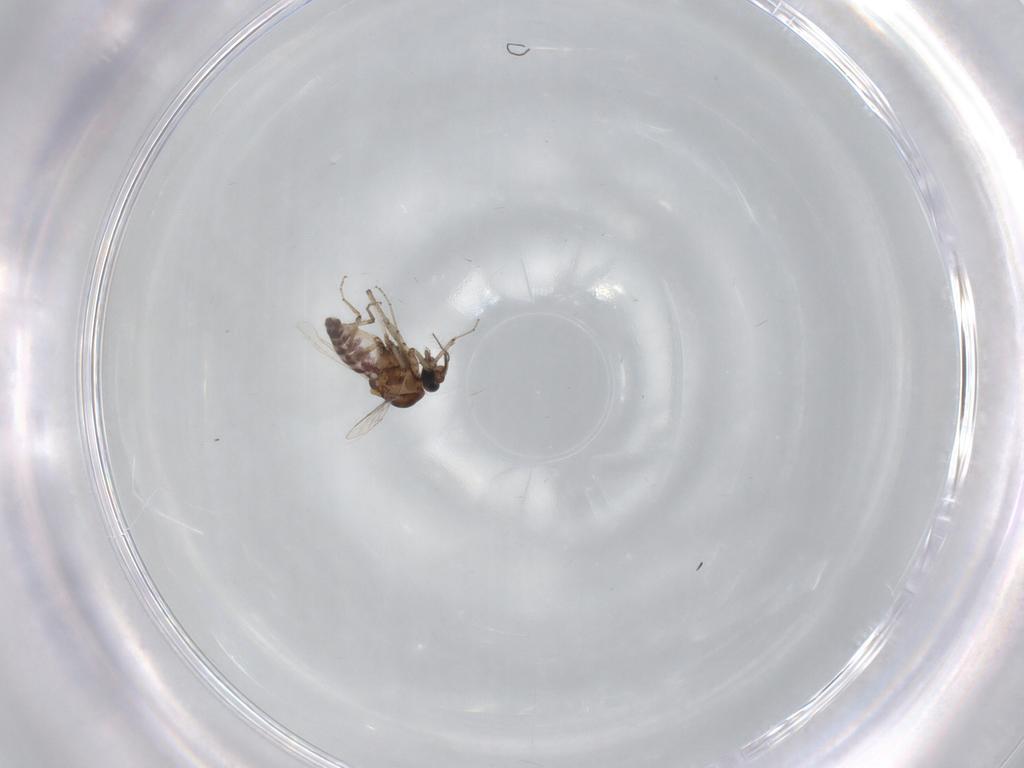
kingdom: Animalia
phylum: Arthropoda
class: Insecta
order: Diptera
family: Ceratopogonidae
